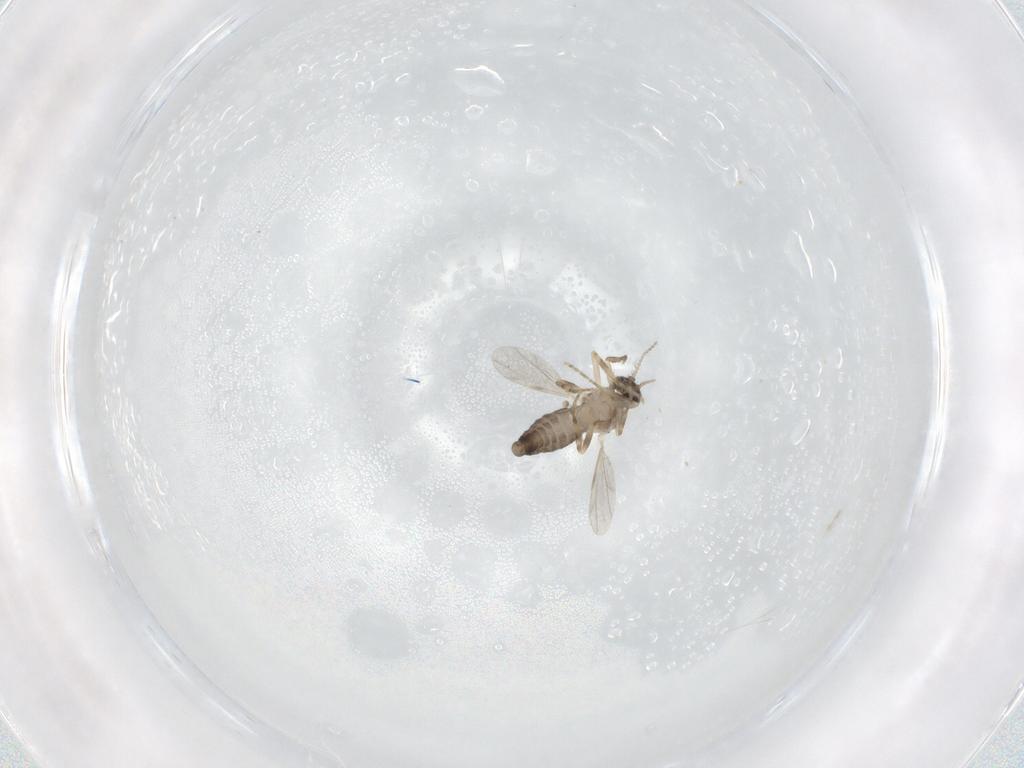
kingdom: Animalia
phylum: Arthropoda
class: Insecta
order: Diptera
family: Ceratopogonidae
